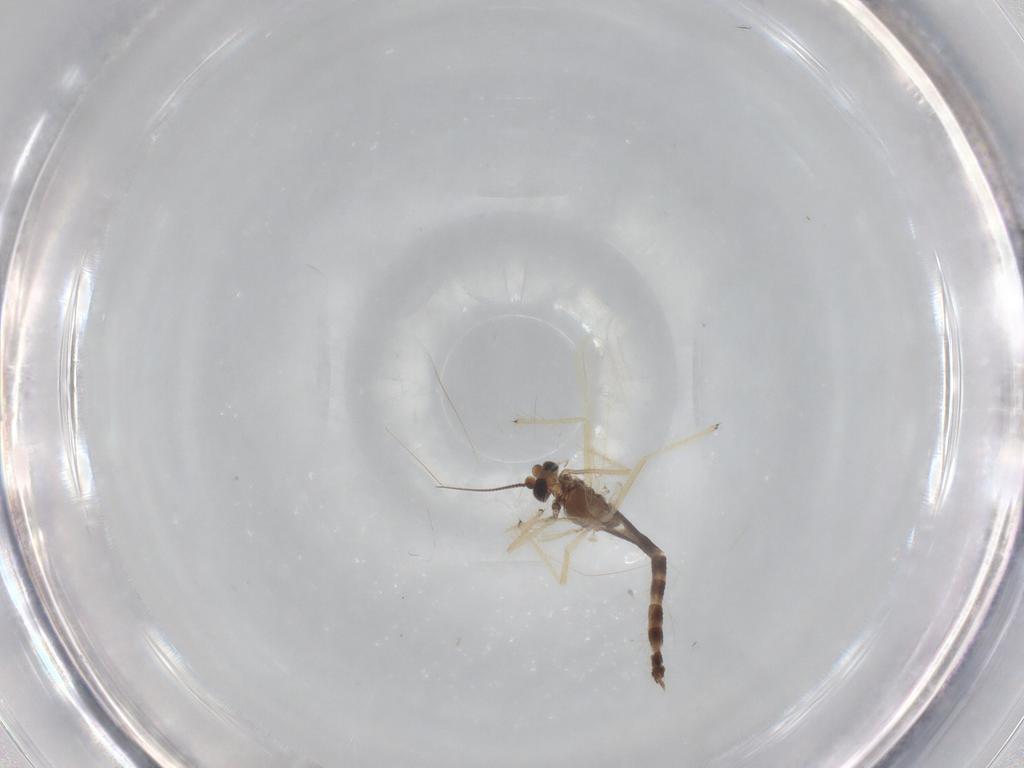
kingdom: Animalia
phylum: Arthropoda
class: Insecta
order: Diptera
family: Chironomidae
